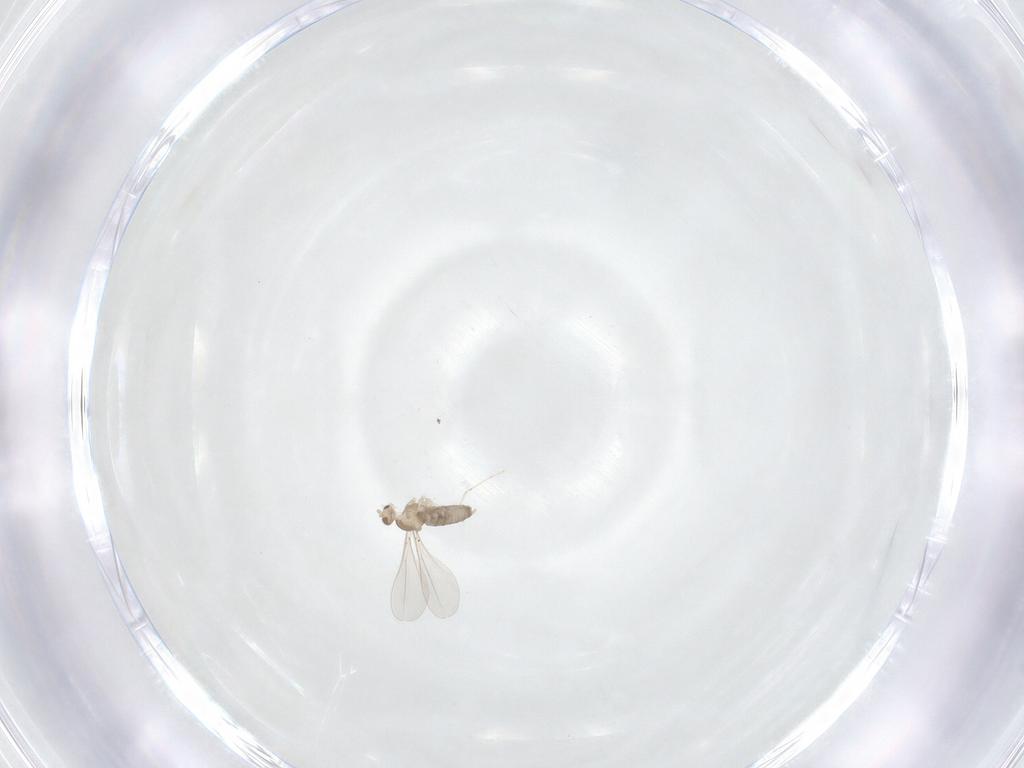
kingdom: Animalia
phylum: Arthropoda
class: Insecta
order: Diptera
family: Cecidomyiidae
